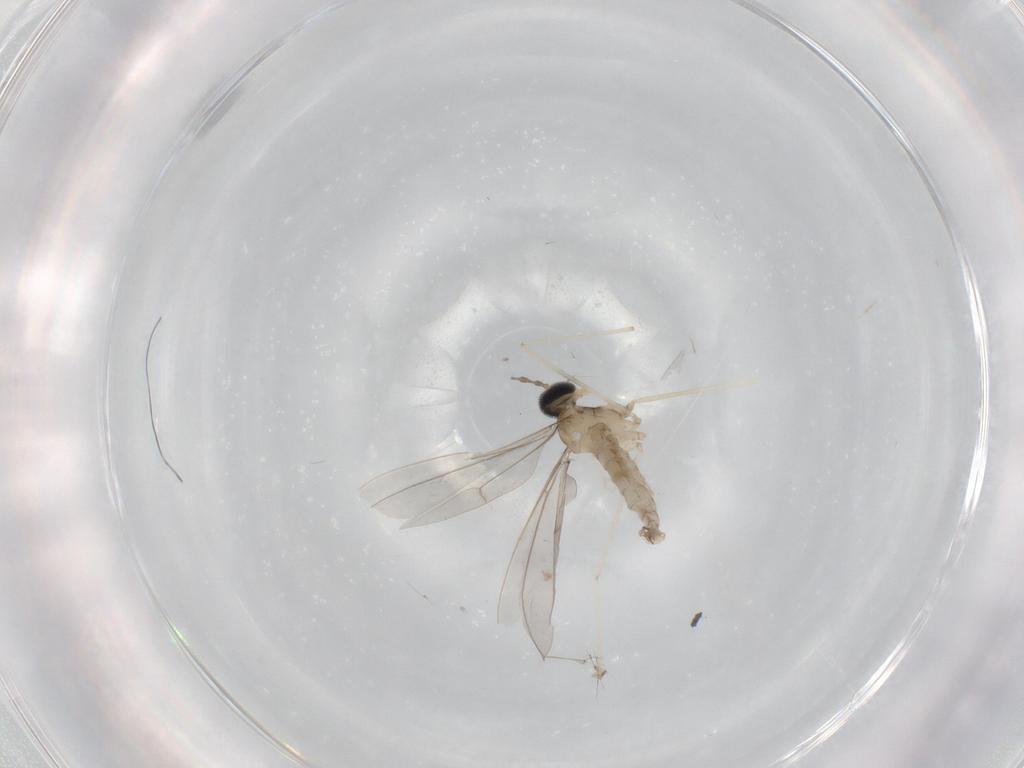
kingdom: Animalia
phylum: Arthropoda
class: Insecta
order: Diptera
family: Cecidomyiidae
